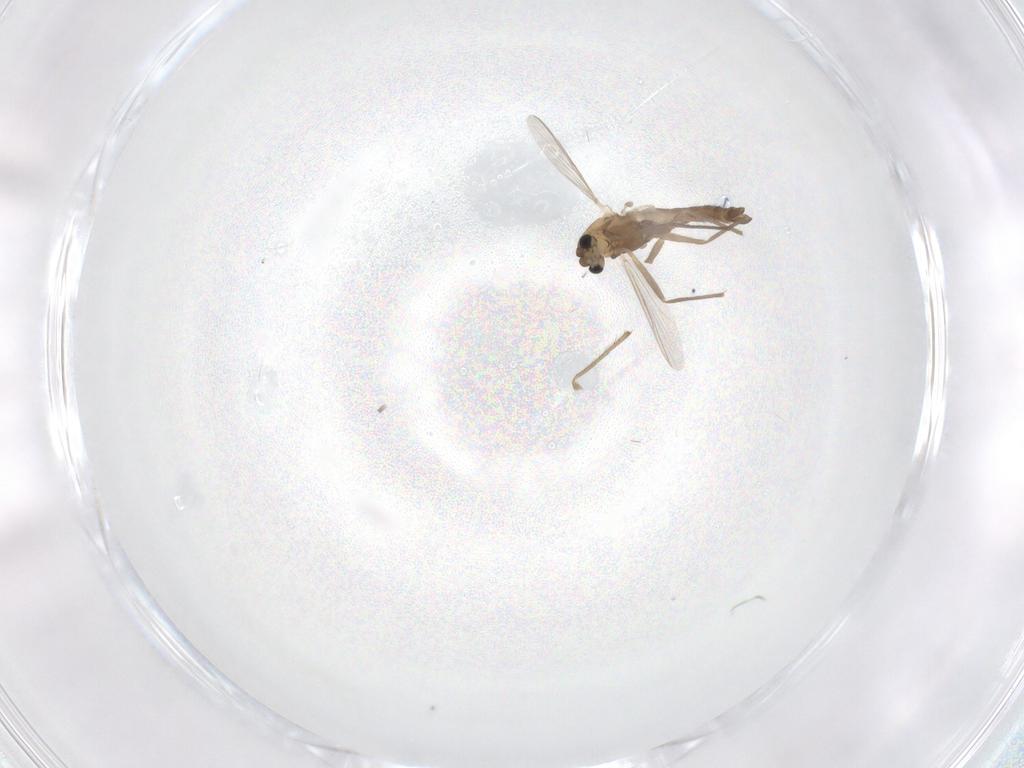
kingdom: Animalia
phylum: Arthropoda
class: Insecta
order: Diptera
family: Chironomidae
